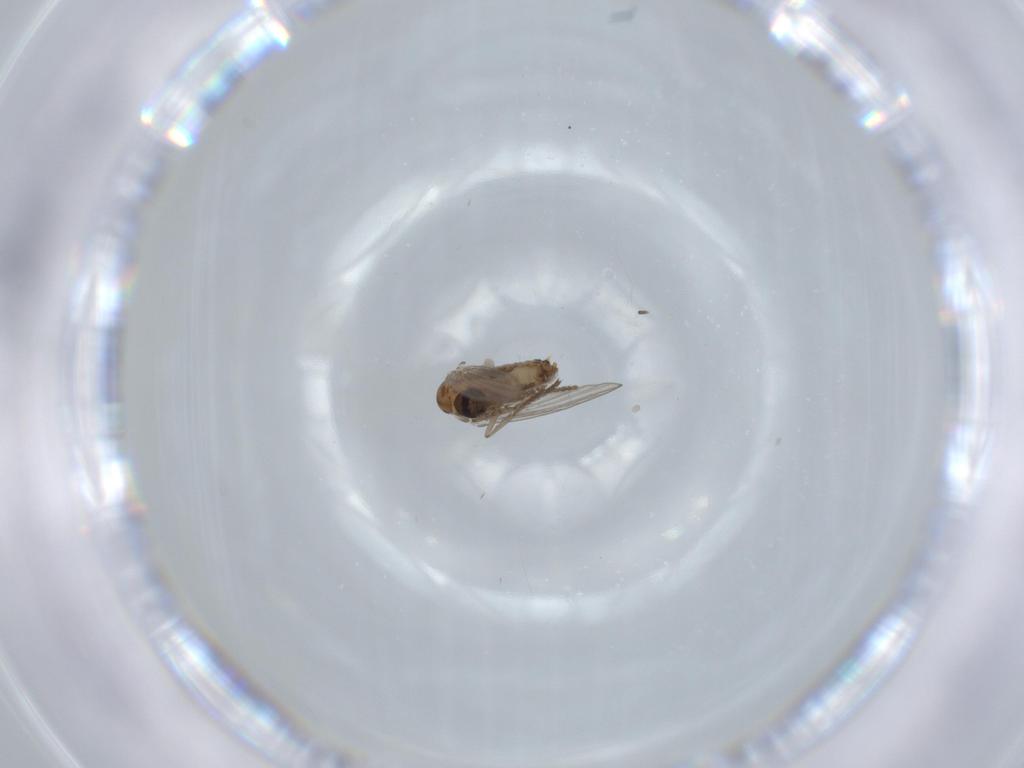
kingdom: Animalia
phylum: Arthropoda
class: Insecta
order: Diptera
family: Psychodidae
